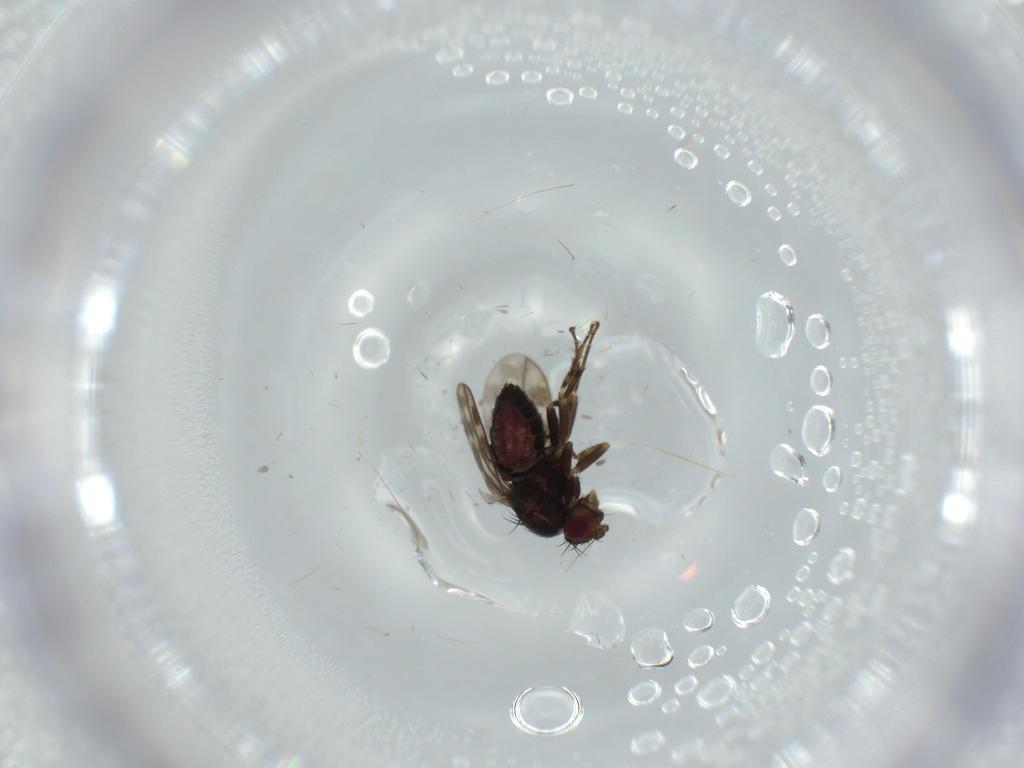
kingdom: Animalia
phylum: Arthropoda
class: Insecta
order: Diptera
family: Sphaeroceridae
